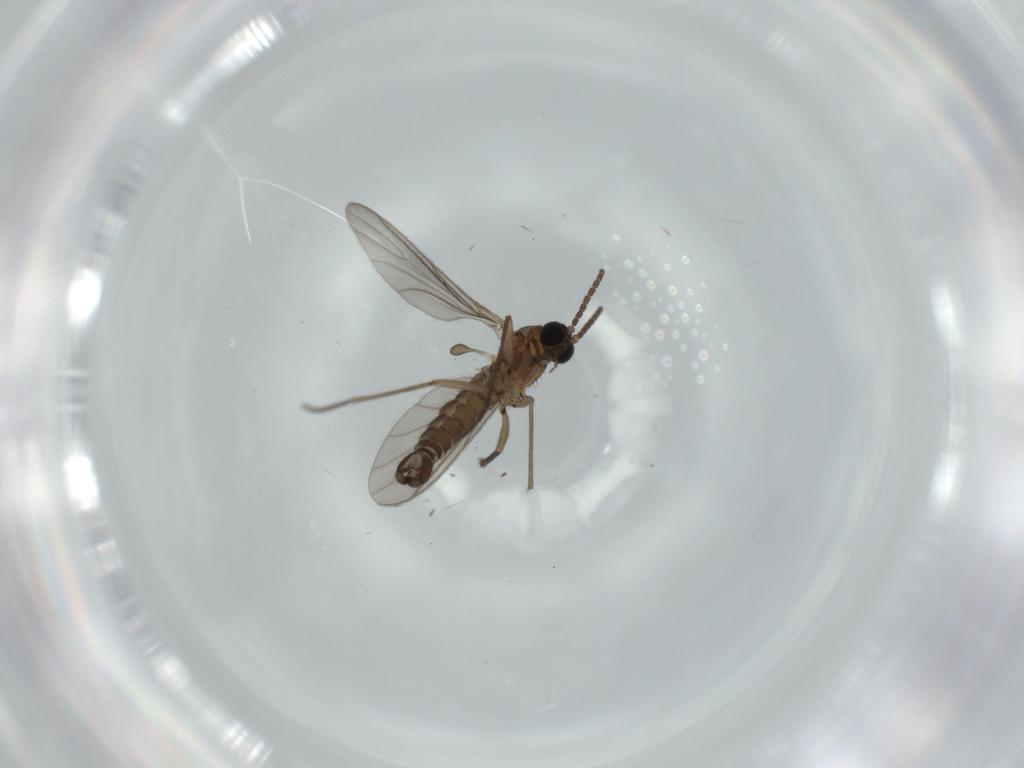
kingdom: Animalia
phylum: Arthropoda
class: Insecta
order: Diptera
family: Sciaridae
